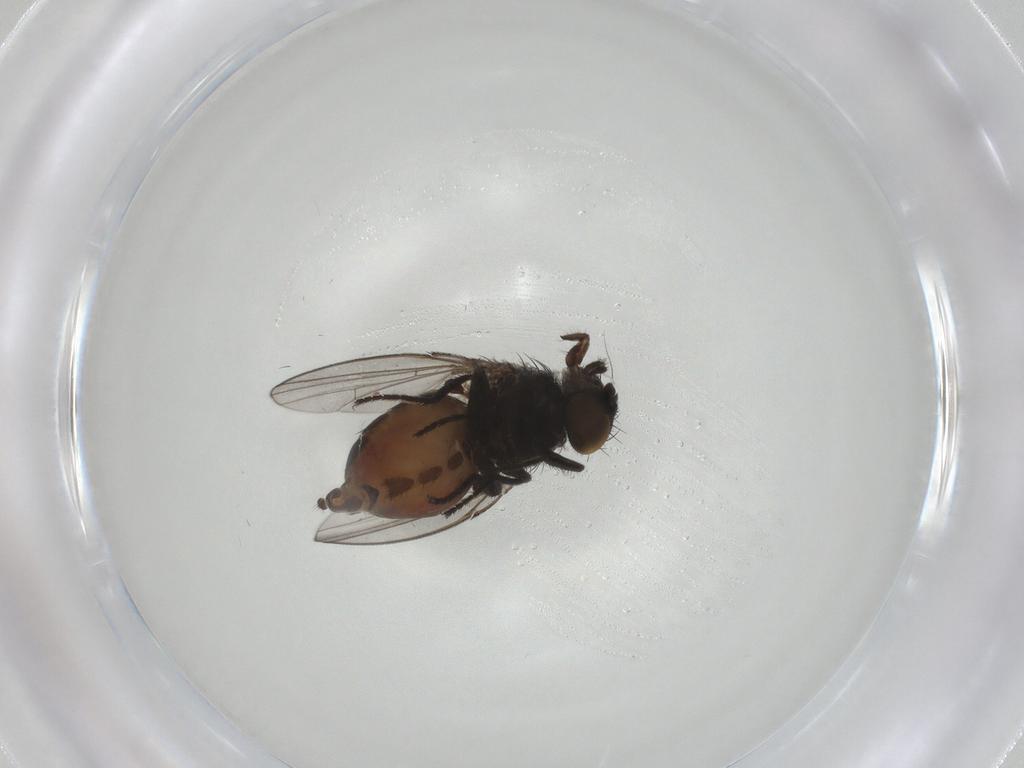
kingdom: Animalia
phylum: Arthropoda
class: Insecta
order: Diptera
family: Milichiidae
